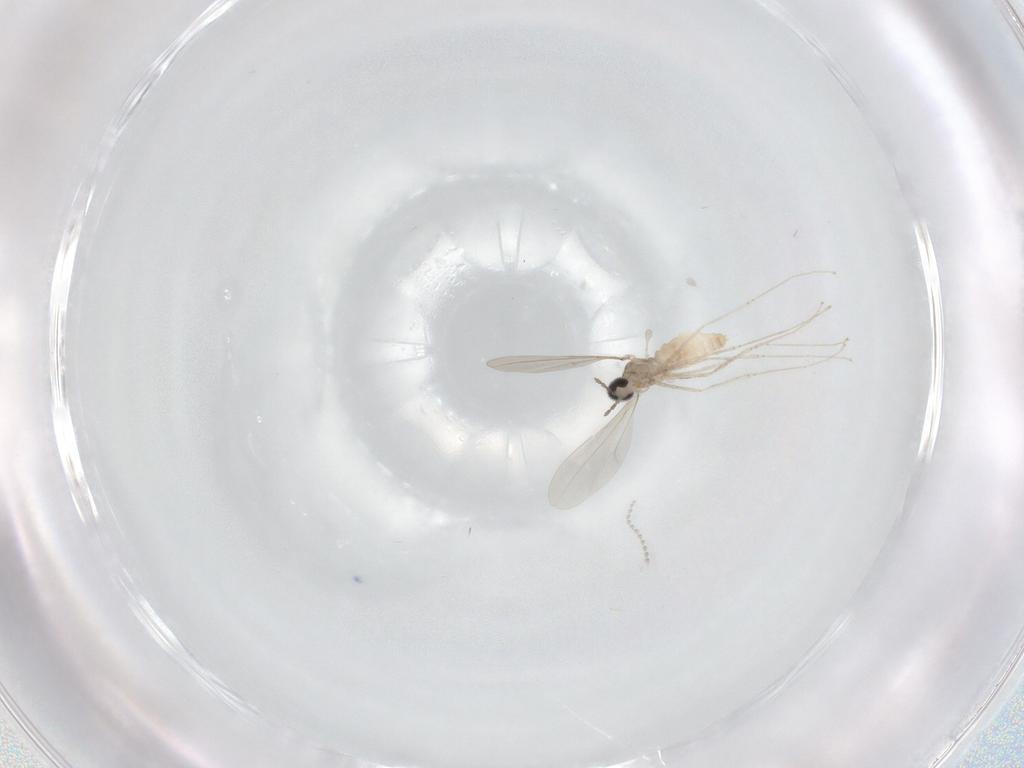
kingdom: Animalia
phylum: Arthropoda
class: Insecta
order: Diptera
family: Cecidomyiidae
